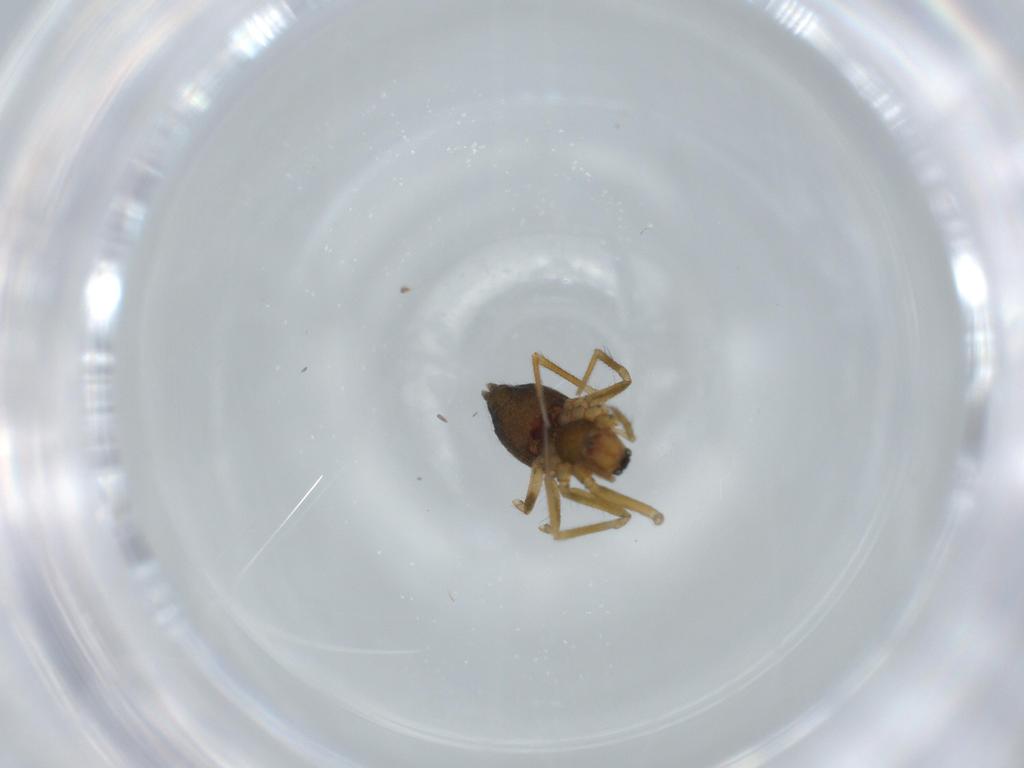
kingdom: Animalia
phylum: Arthropoda
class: Arachnida
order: Araneae
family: Linyphiidae
